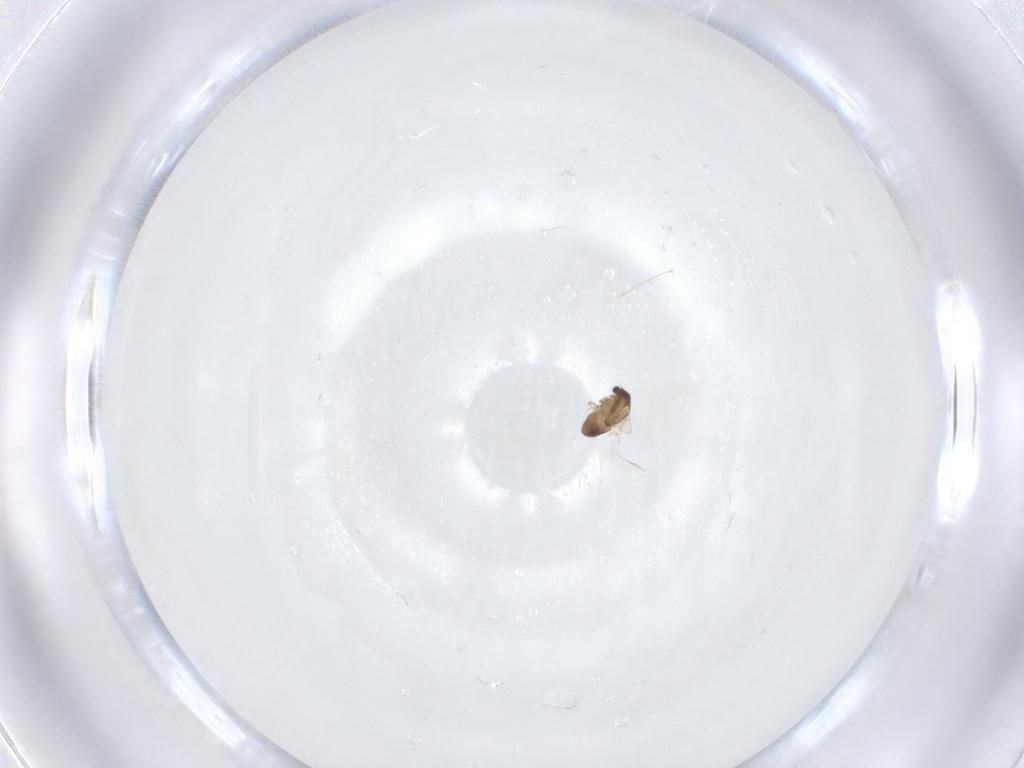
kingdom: Animalia
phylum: Arthropoda
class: Insecta
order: Diptera
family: Chironomidae
